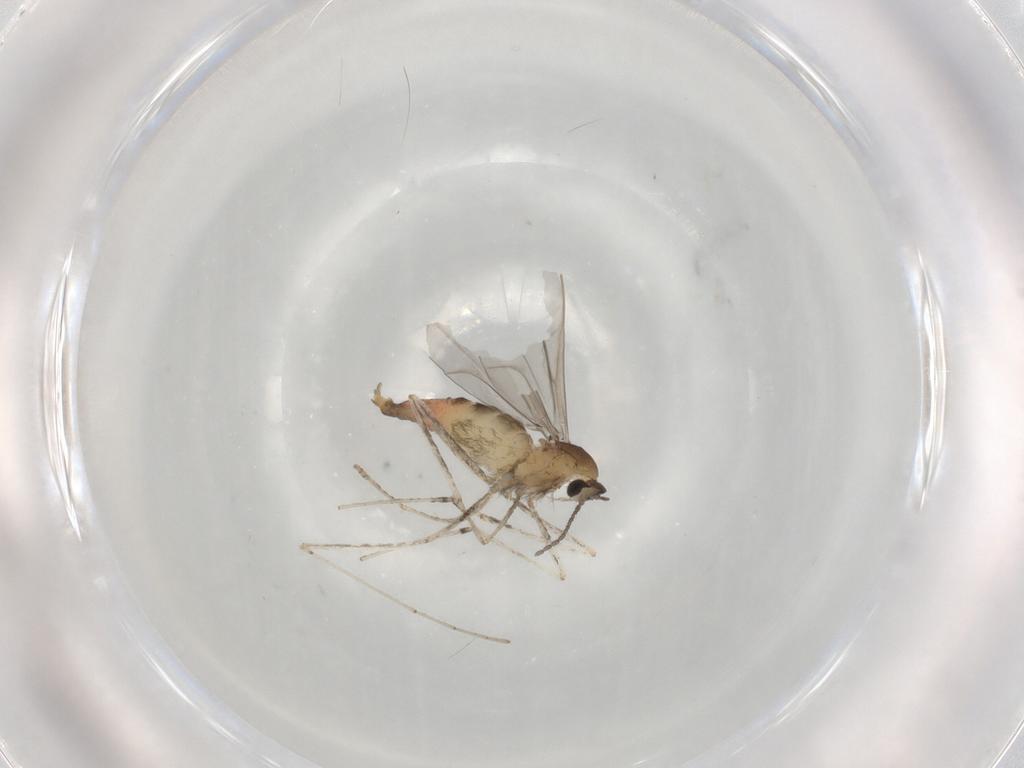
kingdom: Animalia
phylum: Arthropoda
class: Insecta
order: Diptera
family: Cecidomyiidae
